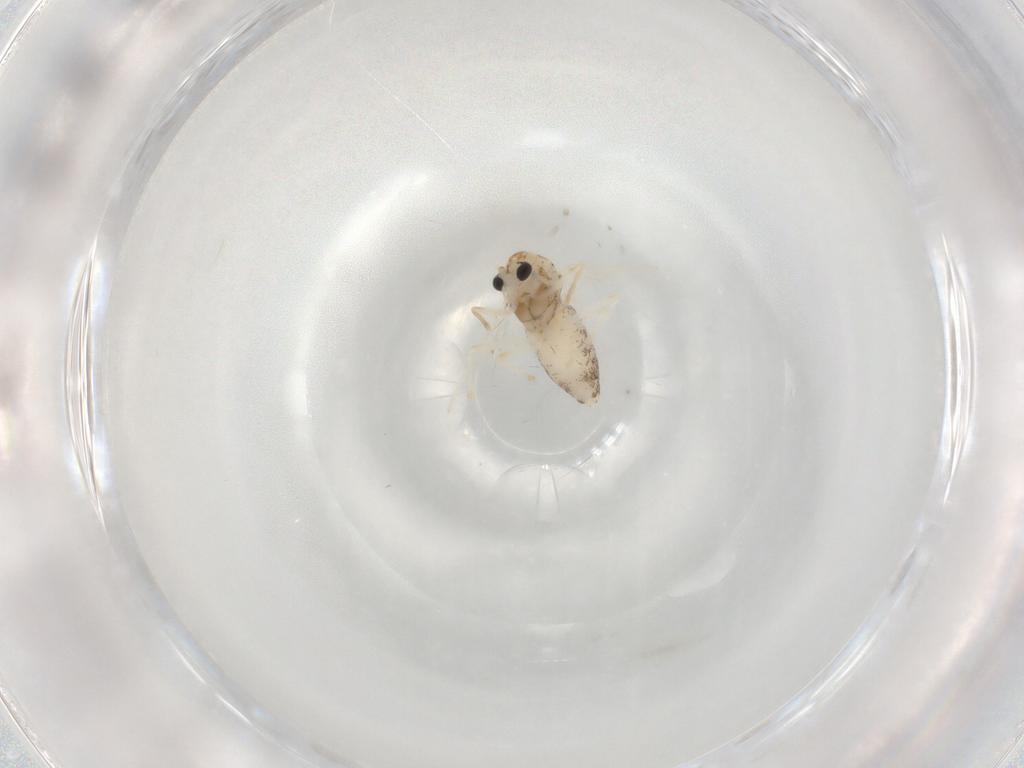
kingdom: Animalia
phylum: Arthropoda
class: Insecta
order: Diptera
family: Chironomidae
